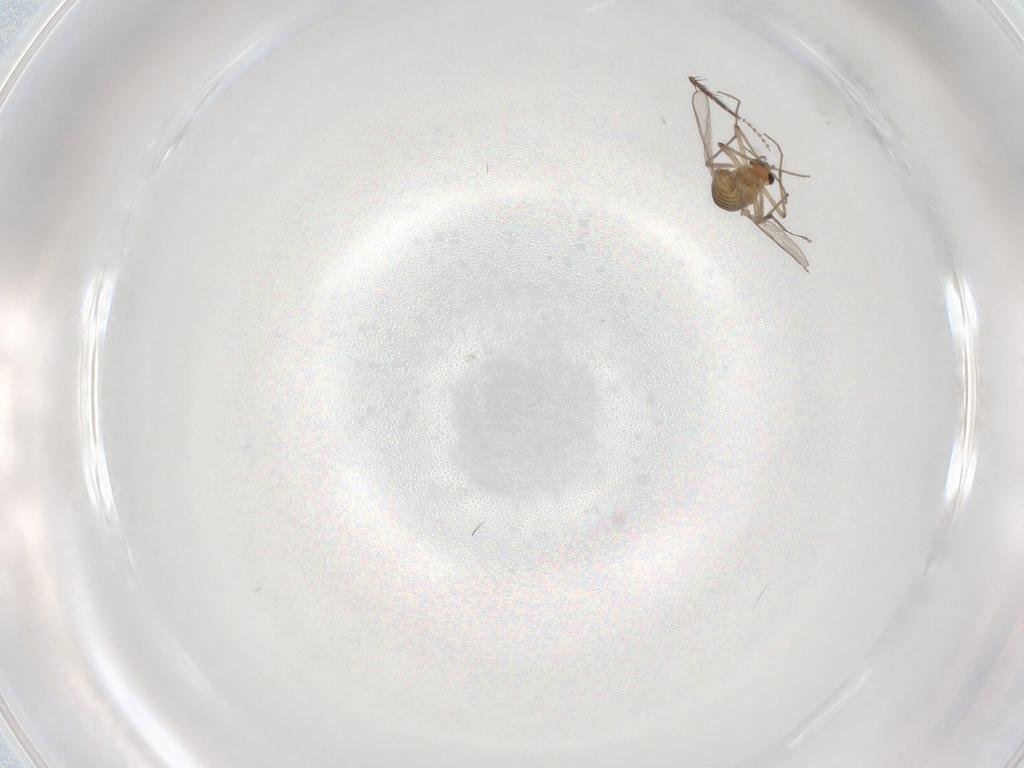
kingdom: Animalia
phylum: Arthropoda
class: Insecta
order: Diptera
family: Chironomidae
